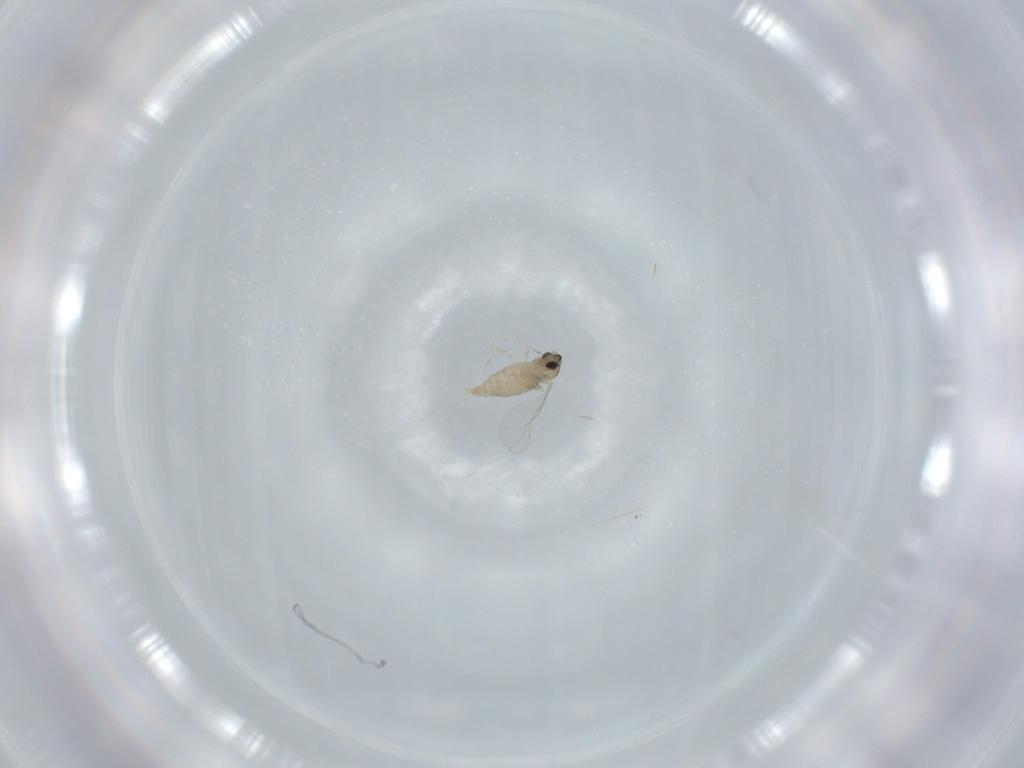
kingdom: Animalia
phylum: Arthropoda
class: Insecta
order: Diptera
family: Cecidomyiidae
